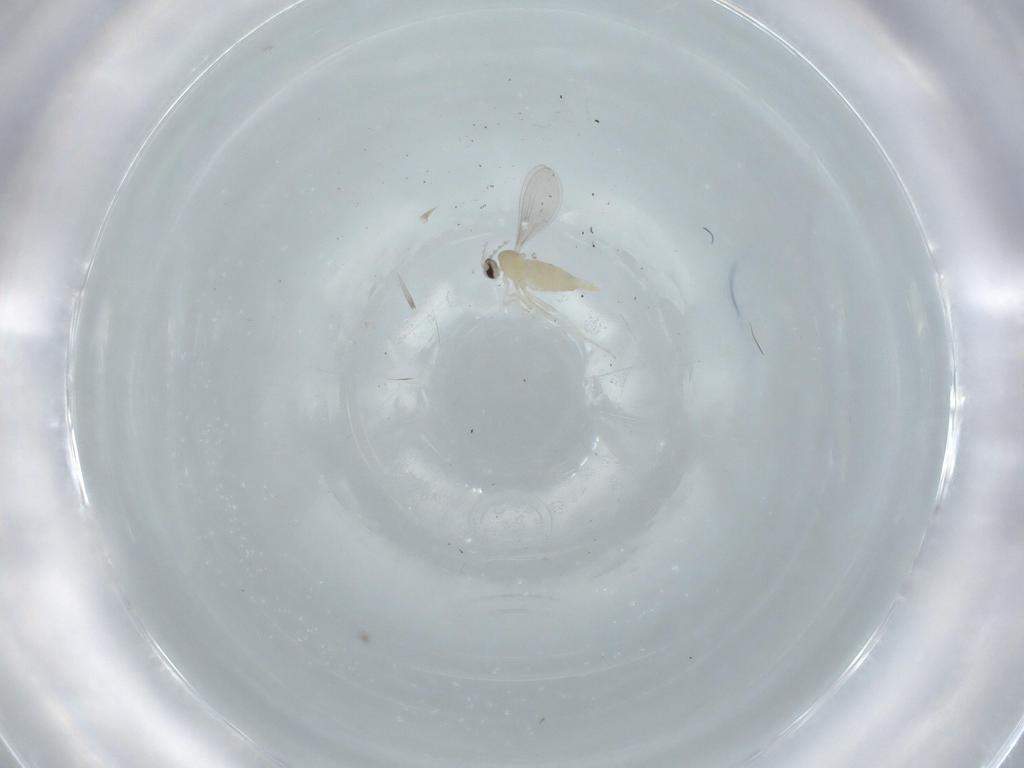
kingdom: Animalia
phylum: Arthropoda
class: Insecta
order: Diptera
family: Cecidomyiidae
